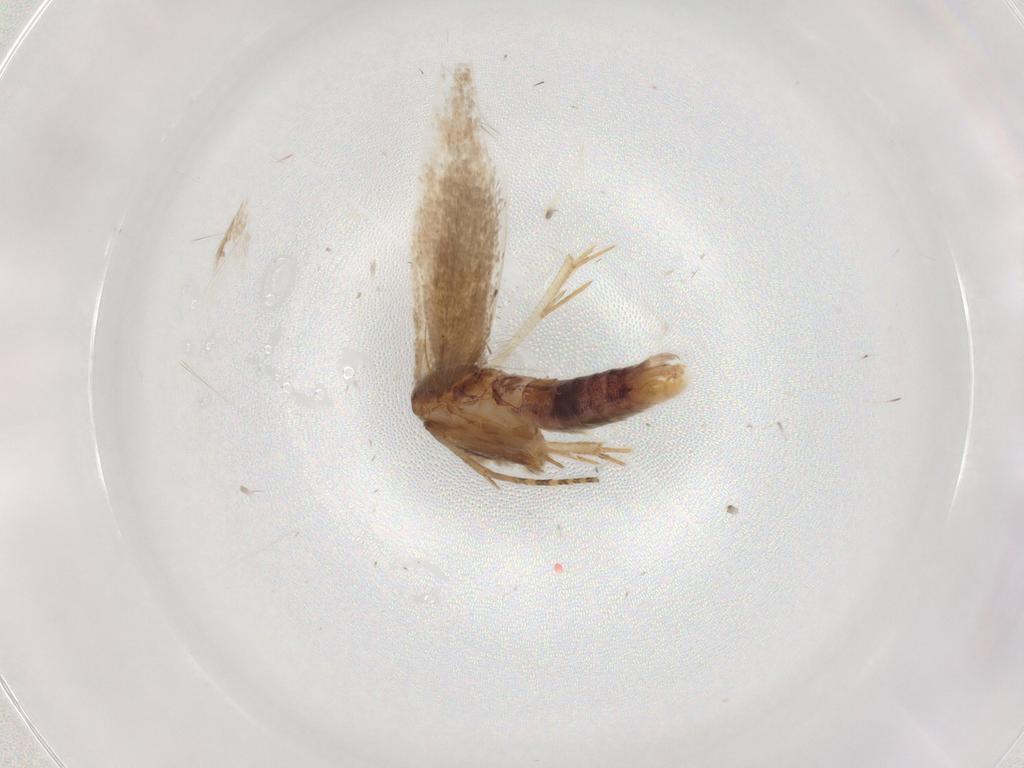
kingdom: Animalia
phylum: Arthropoda
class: Insecta
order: Lepidoptera
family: Gelechiidae
